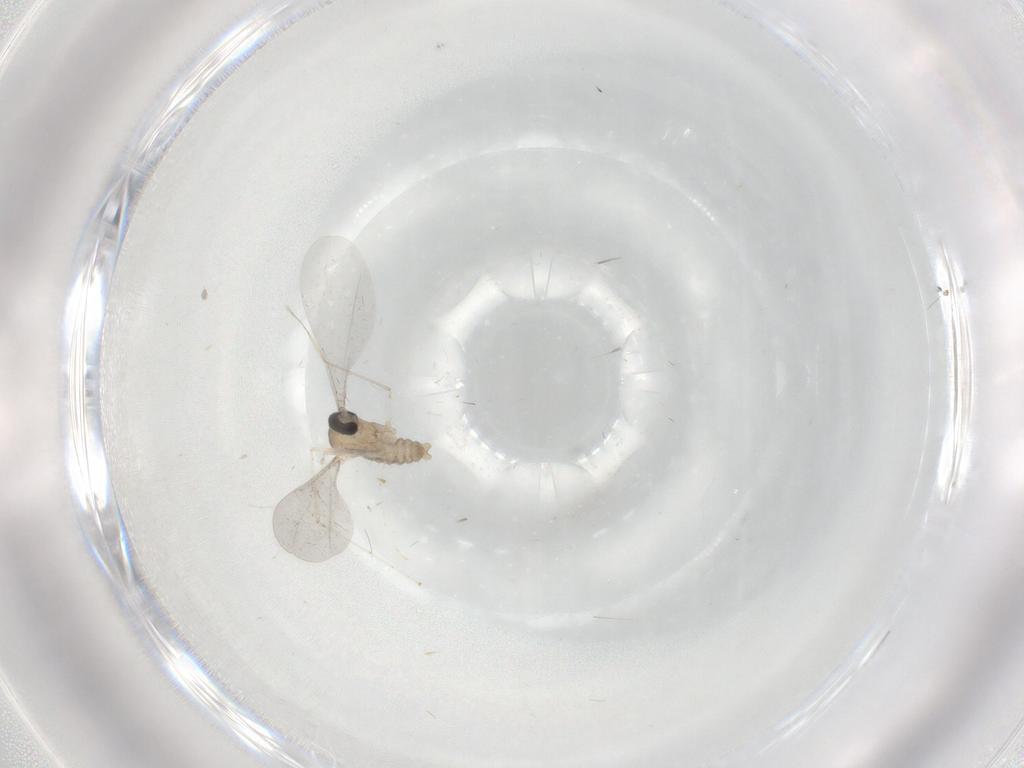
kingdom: Animalia
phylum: Arthropoda
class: Insecta
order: Diptera
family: Cecidomyiidae
